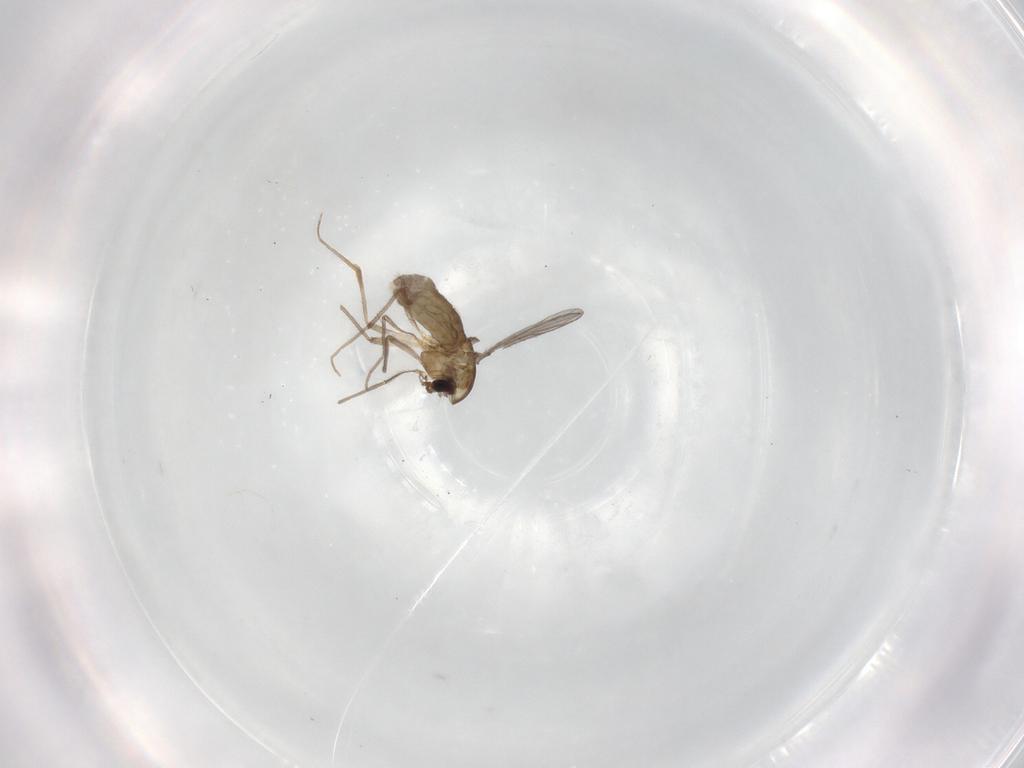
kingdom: Animalia
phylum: Arthropoda
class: Insecta
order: Diptera
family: Chironomidae
